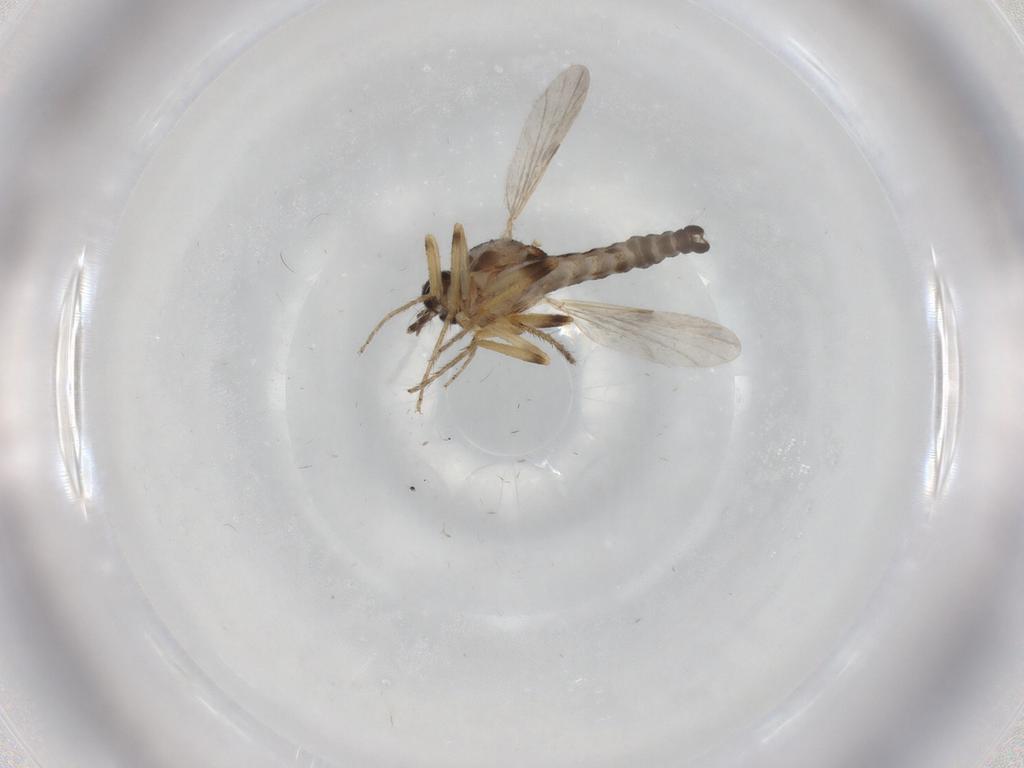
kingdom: Animalia
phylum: Arthropoda
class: Insecta
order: Diptera
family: Ceratopogonidae
